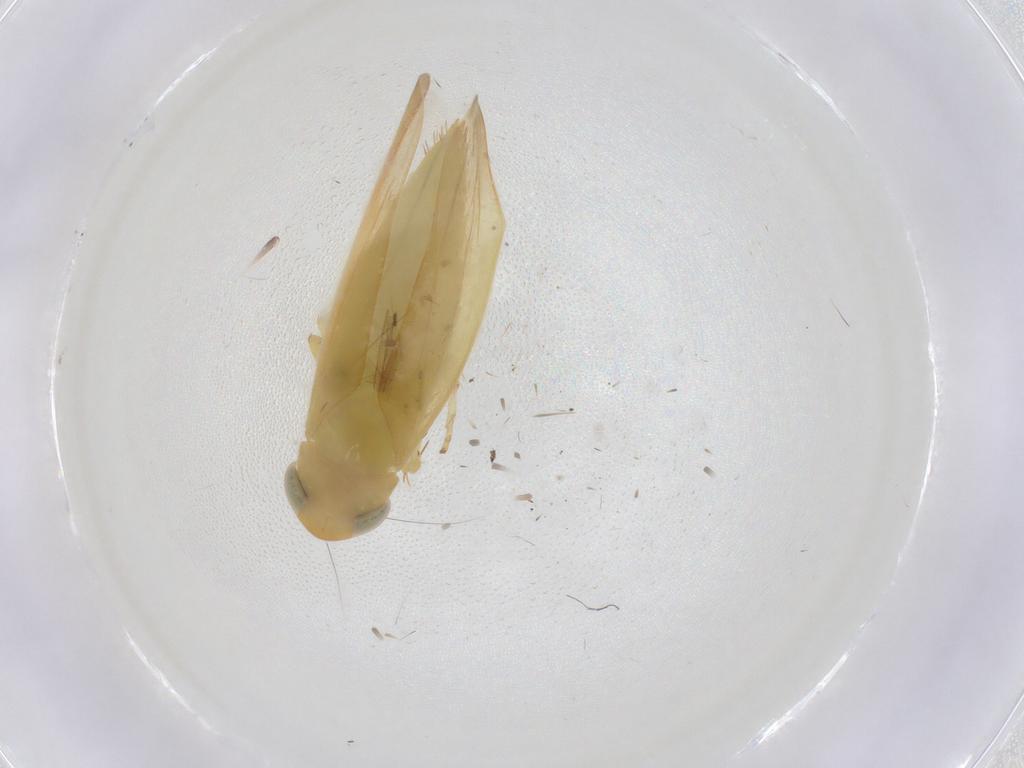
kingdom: Animalia
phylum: Arthropoda
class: Insecta
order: Hemiptera
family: Cicadellidae
